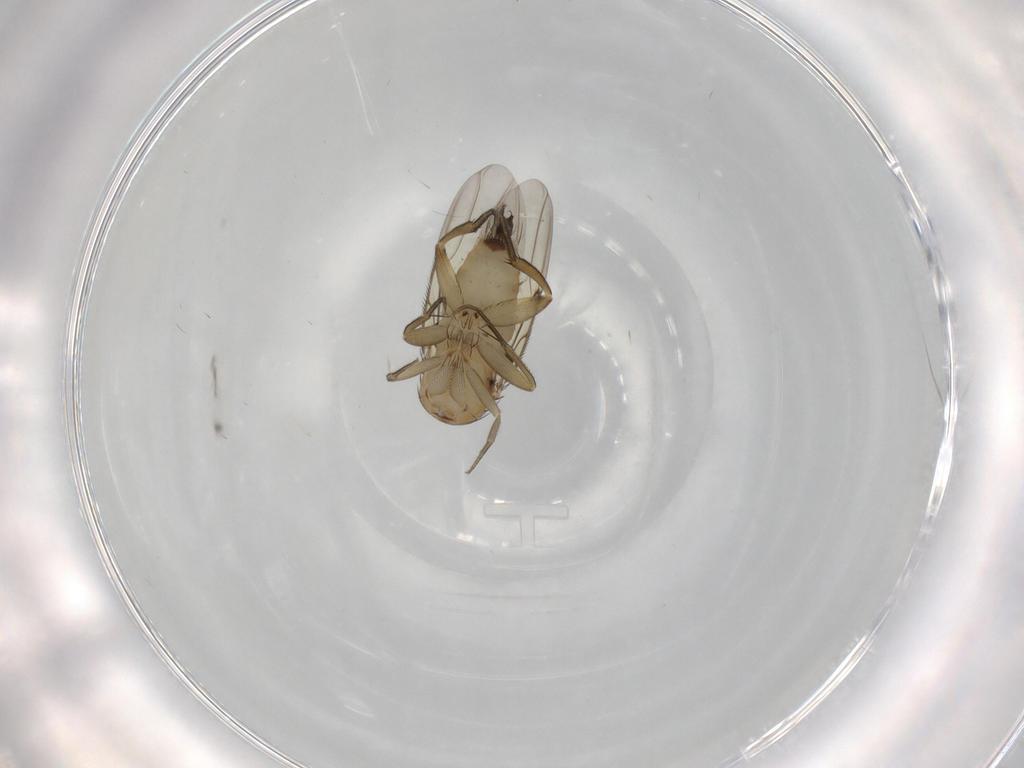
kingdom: Animalia
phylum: Arthropoda
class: Insecta
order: Diptera
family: Phoridae
